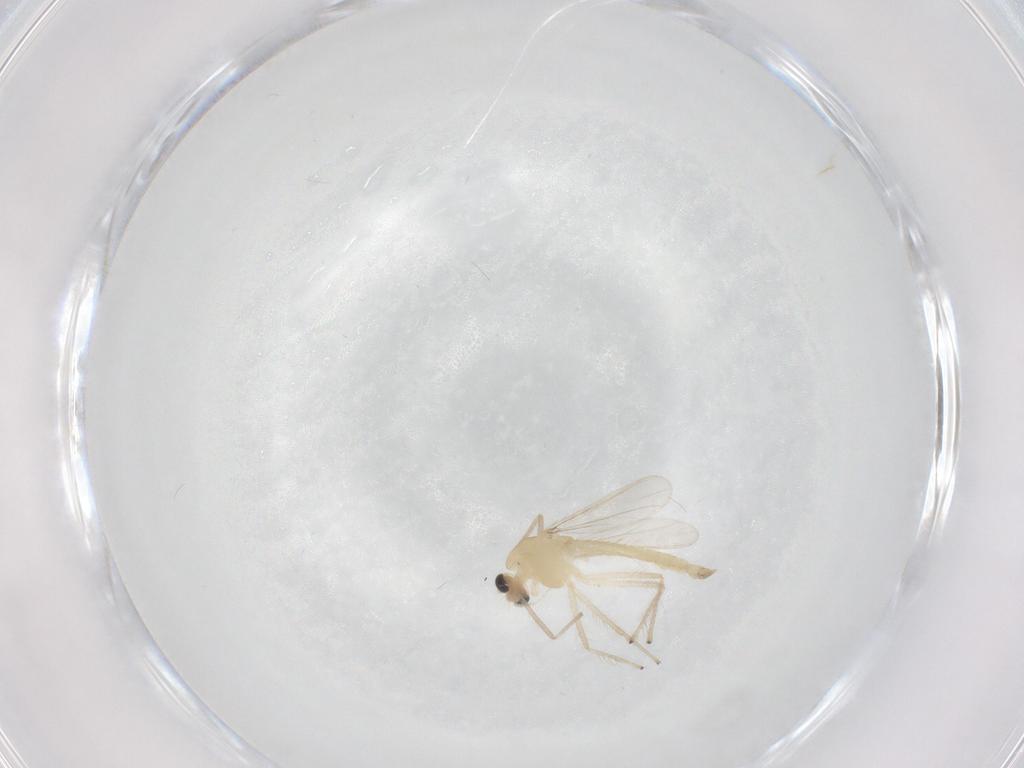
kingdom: Animalia
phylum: Arthropoda
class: Insecta
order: Diptera
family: Chironomidae
